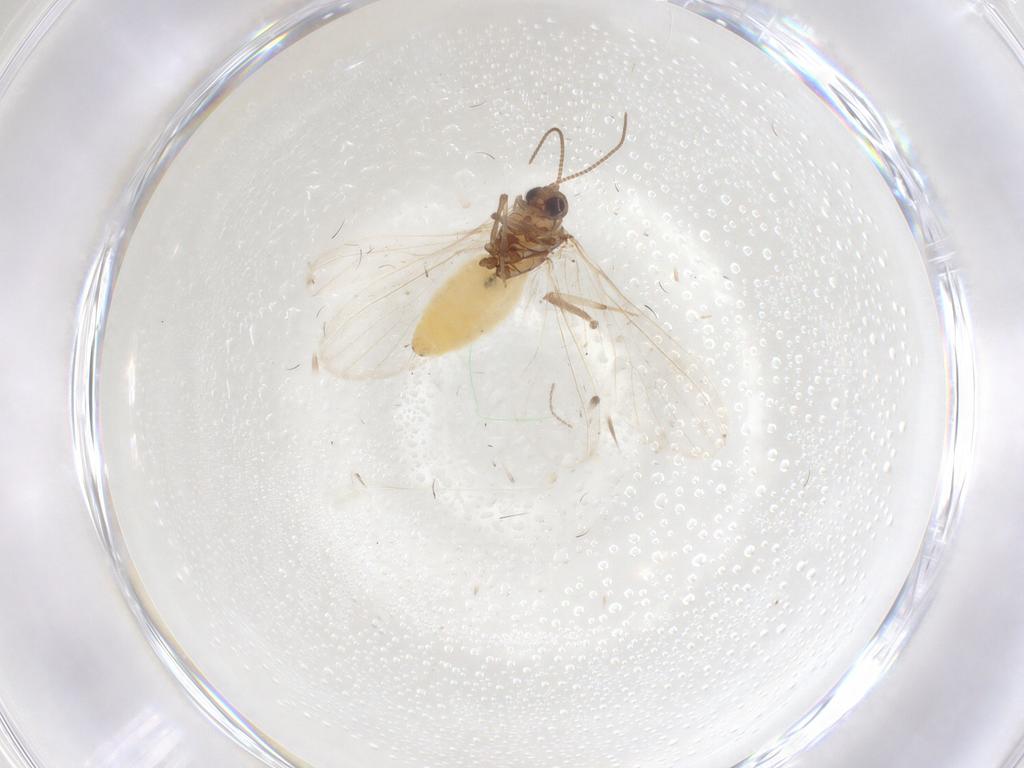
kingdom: Animalia
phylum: Arthropoda
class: Insecta
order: Neuroptera
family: Coniopterygidae
